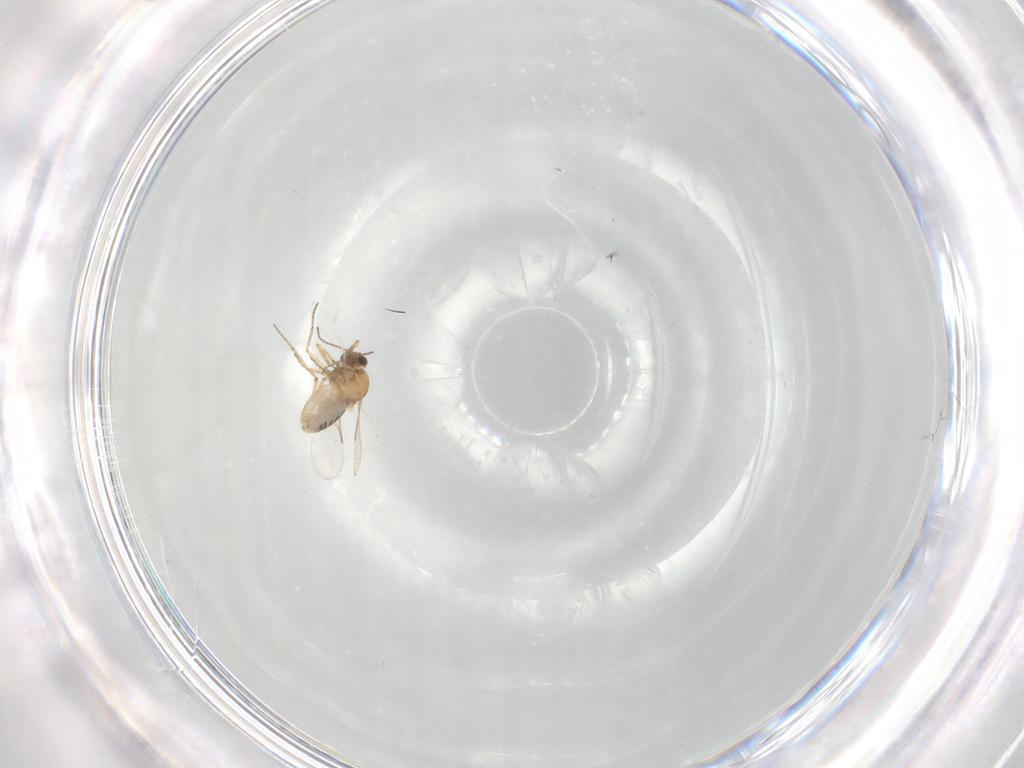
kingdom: Animalia
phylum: Arthropoda
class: Insecta
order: Diptera
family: Ceratopogonidae
